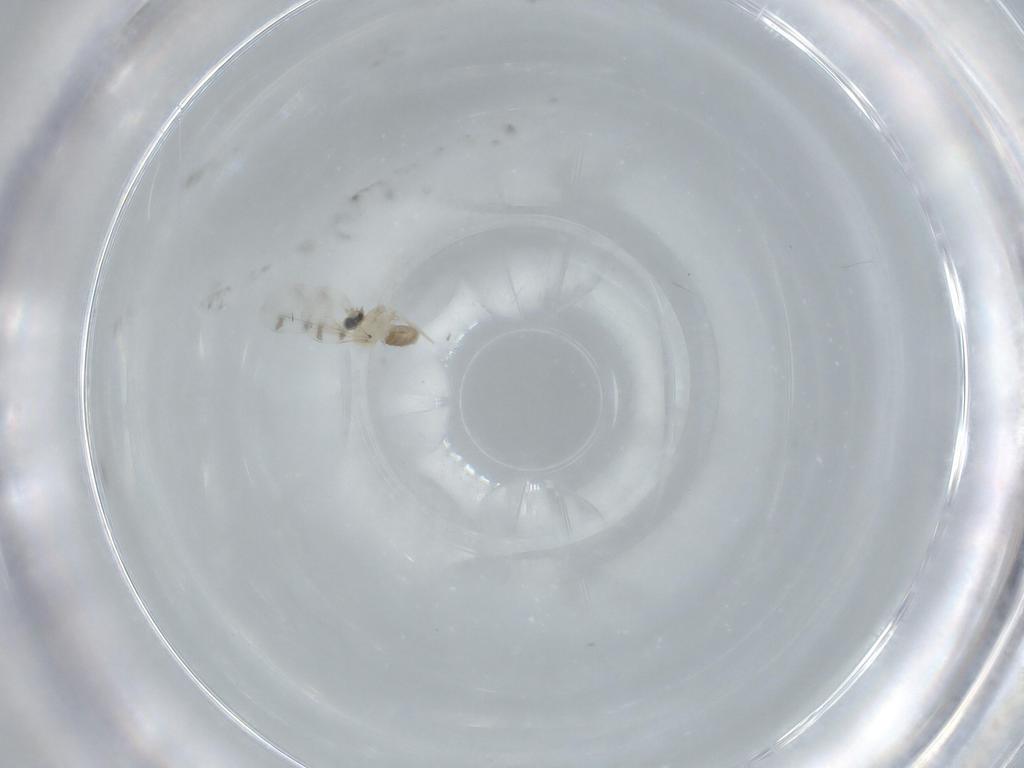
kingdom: Animalia
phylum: Arthropoda
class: Insecta
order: Diptera
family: Cecidomyiidae
